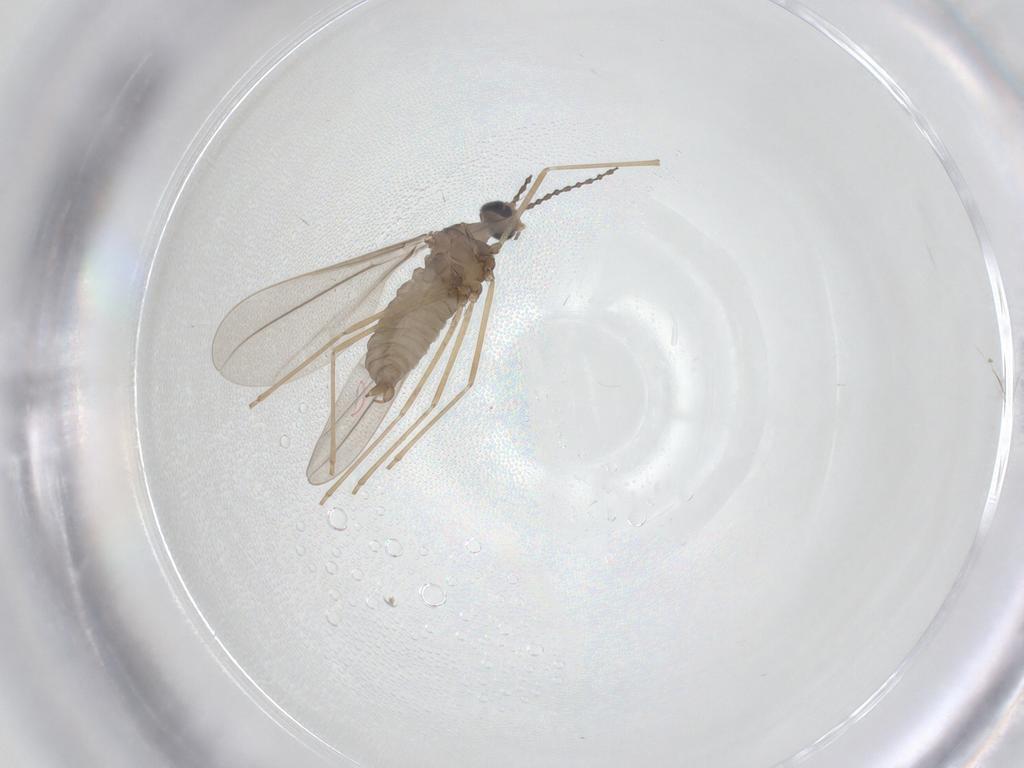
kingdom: Animalia
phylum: Arthropoda
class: Insecta
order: Diptera
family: Cecidomyiidae
